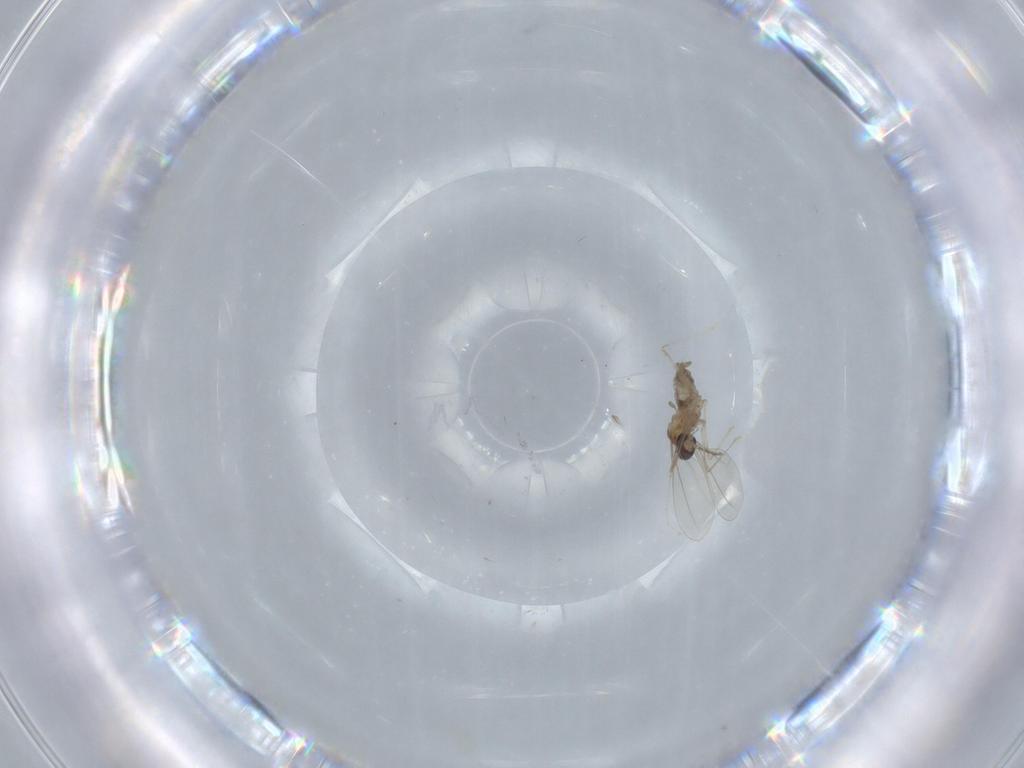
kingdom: Animalia
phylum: Arthropoda
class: Insecta
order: Diptera
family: Cecidomyiidae
